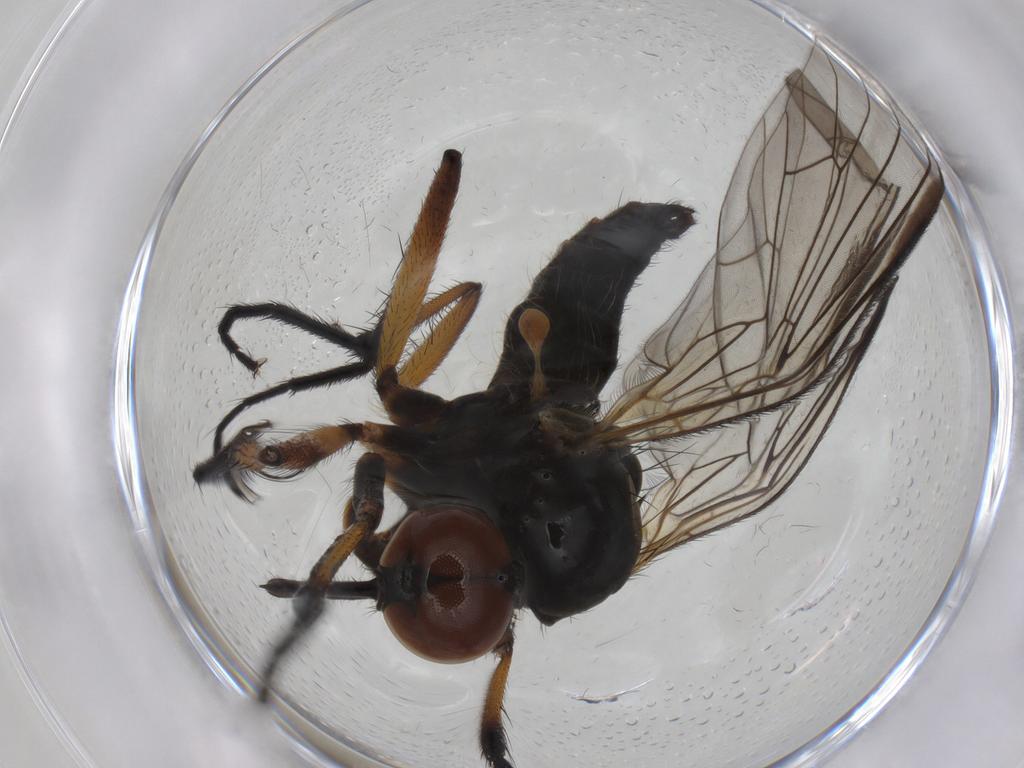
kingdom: Animalia
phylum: Arthropoda
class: Insecta
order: Diptera
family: Empididae
